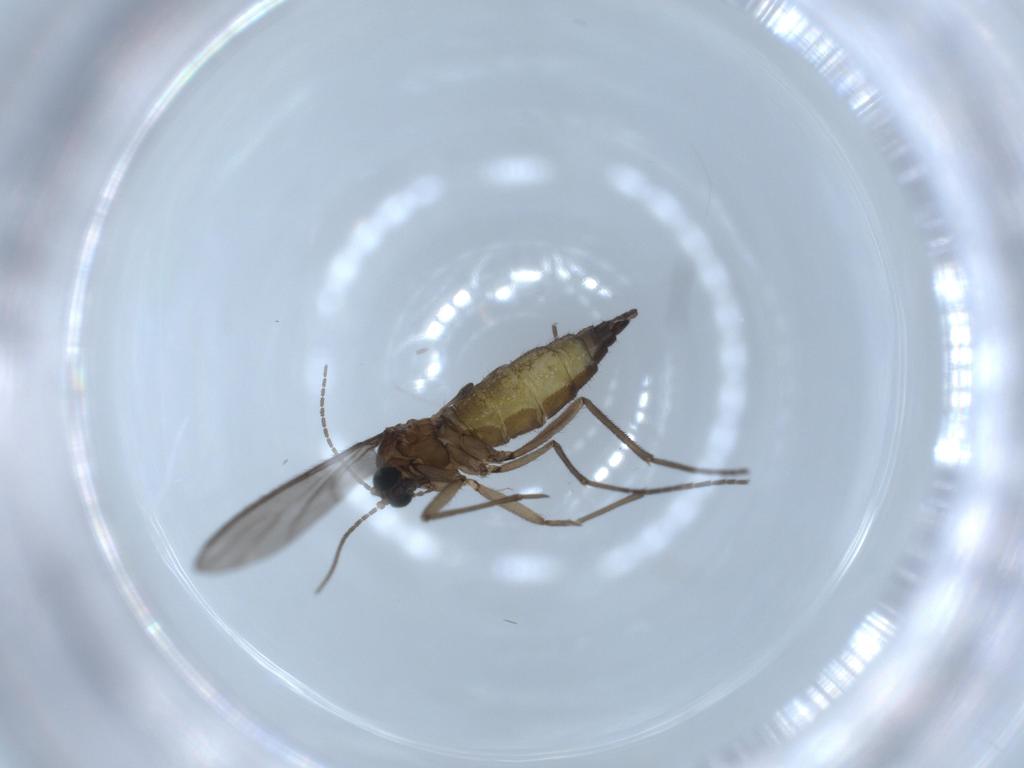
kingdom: Animalia
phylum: Arthropoda
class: Insecta
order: Diptera
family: Sciaridae
